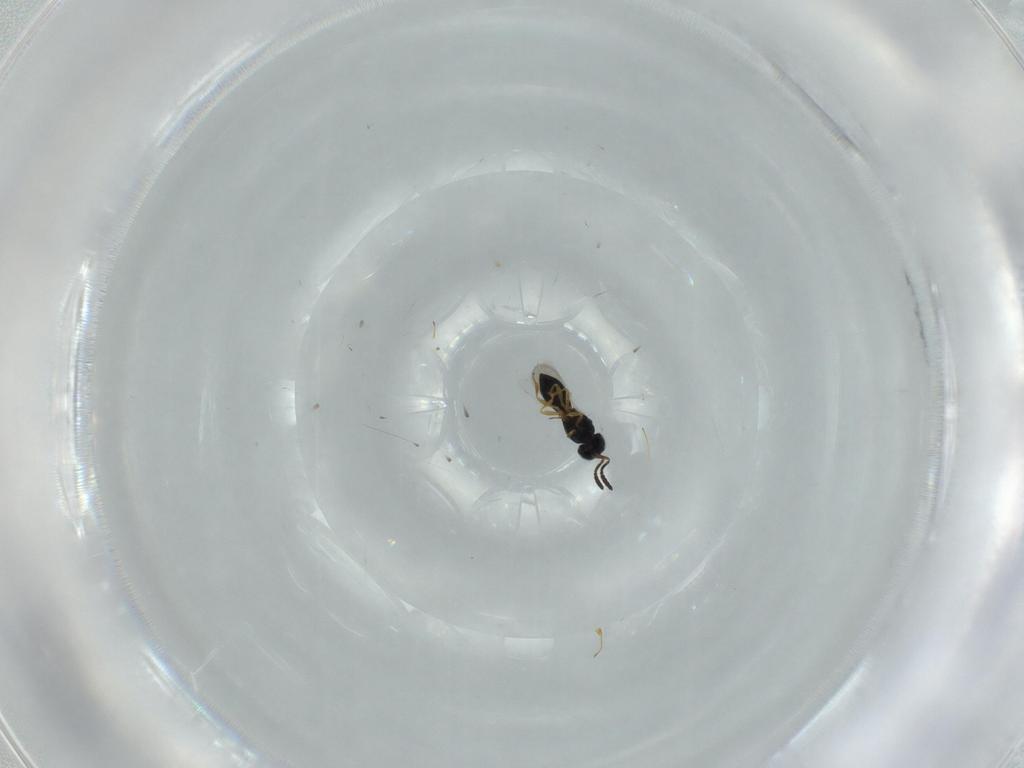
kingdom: Animalia
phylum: Arthropoda
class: Insecta
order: Hymenoptera
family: Scelionidae
